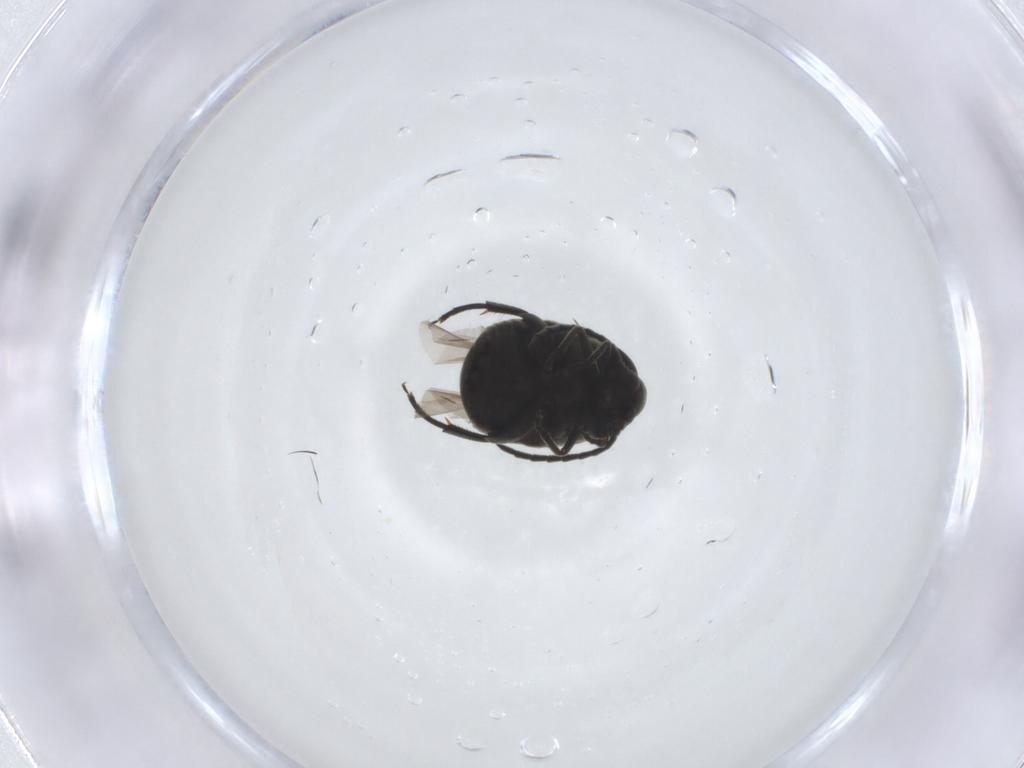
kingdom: Animalia
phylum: Arthropoda
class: Insecta
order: Coleoptera
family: Chrysomelidae
